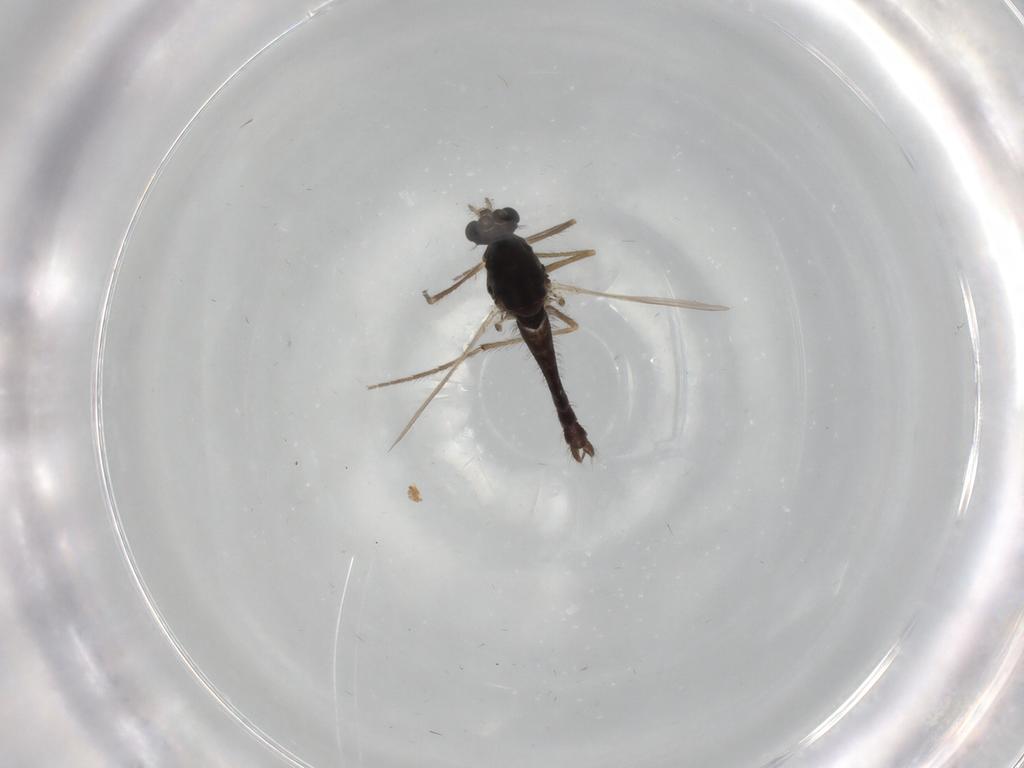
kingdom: Animalia
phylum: Arthropoda
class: Insecta
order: Diptera
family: Chironomidae
